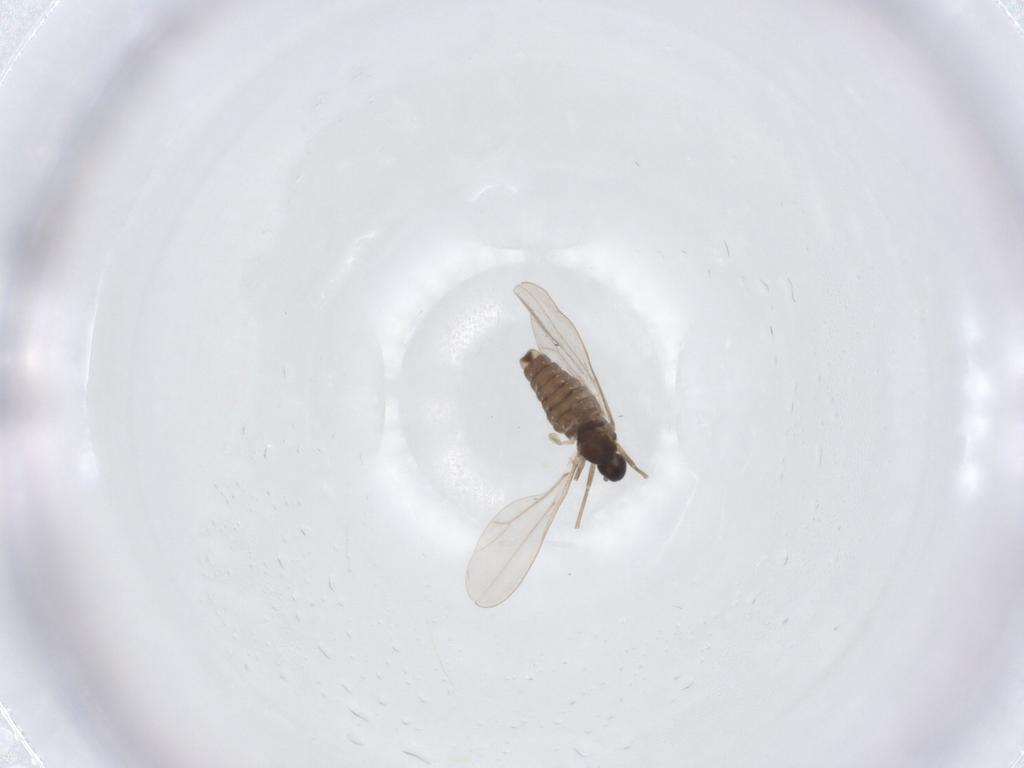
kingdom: Animalia
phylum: Arthropoda
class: Insecta
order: Diptera
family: Cecidomyiidae
